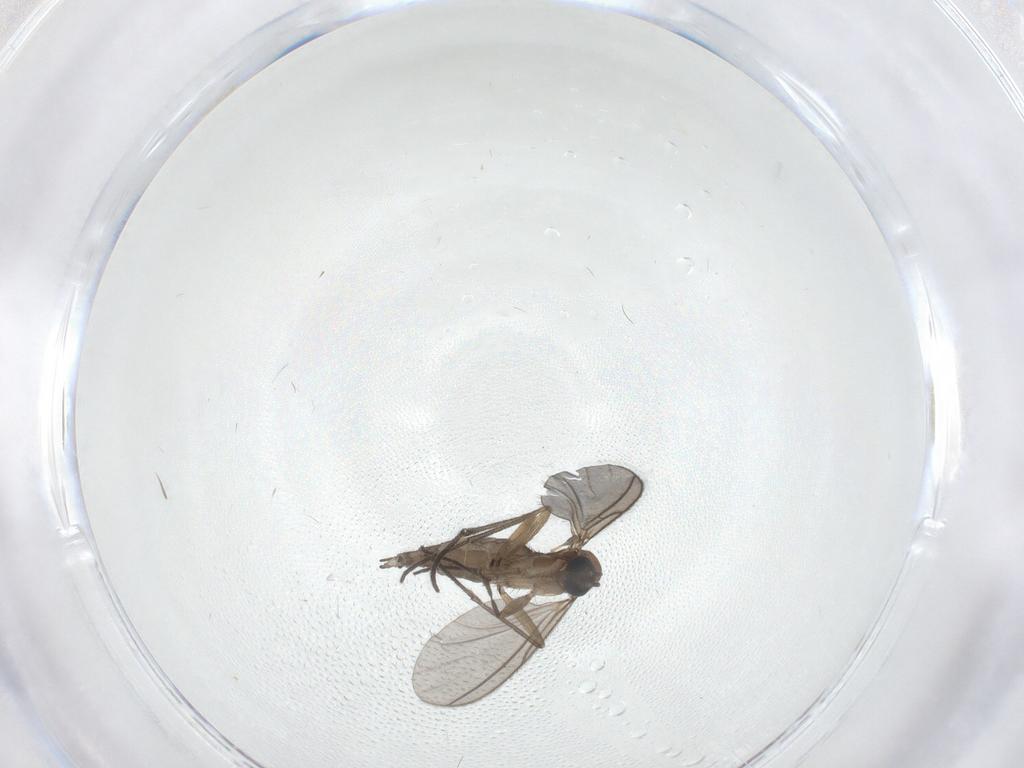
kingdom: Animalia
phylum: Arthropoda
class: Insecta
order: Diptera
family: Sciaridae
